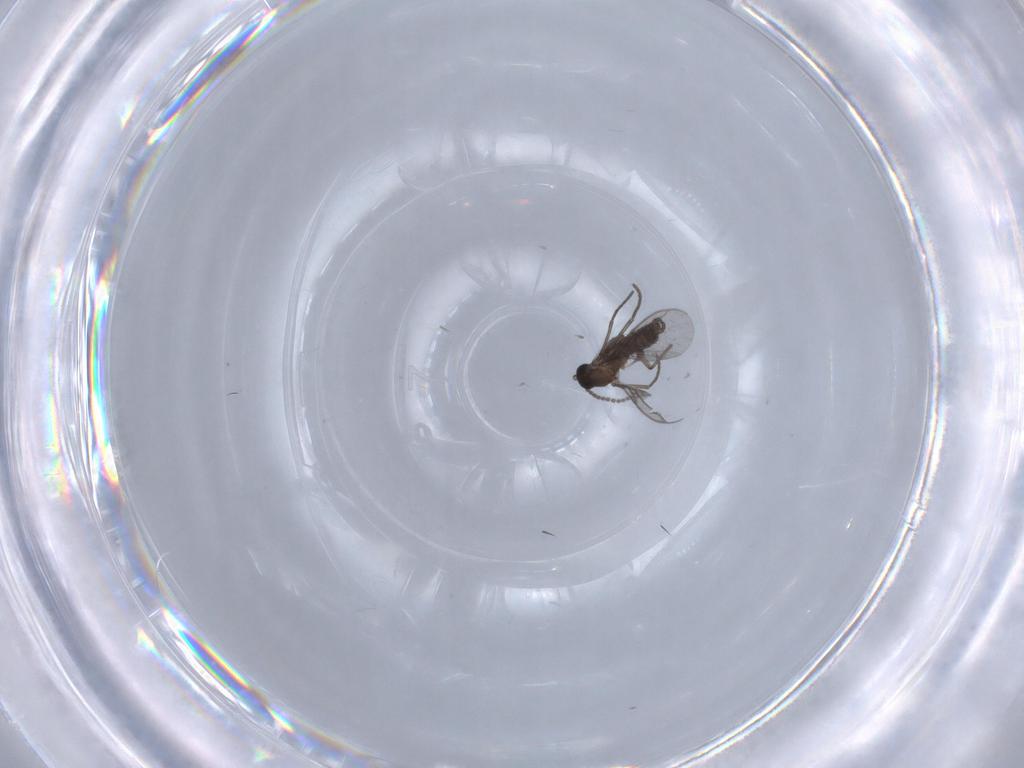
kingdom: Animalia
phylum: Arthropoda
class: Insecta
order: Diptera
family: Chironomidae
